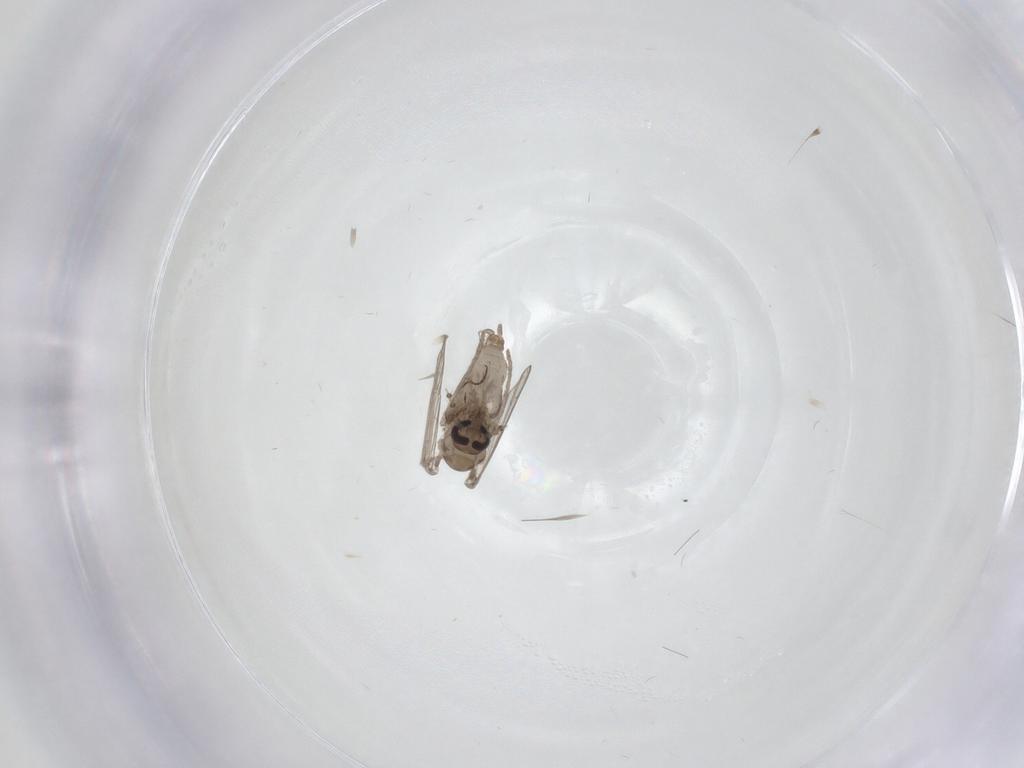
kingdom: Animalia
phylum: Arthropoda
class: Insecta
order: Diptera
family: Psychodidae
